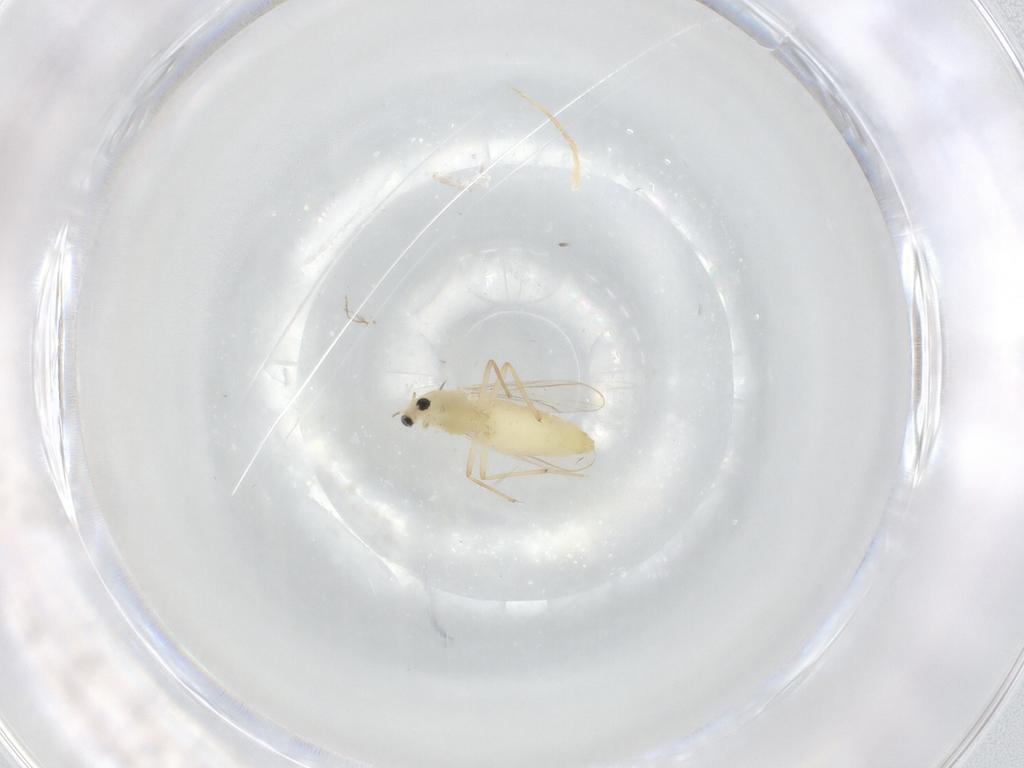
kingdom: Animalia
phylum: Arthropoda
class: Insecta
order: Diptera
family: Chironomidae
